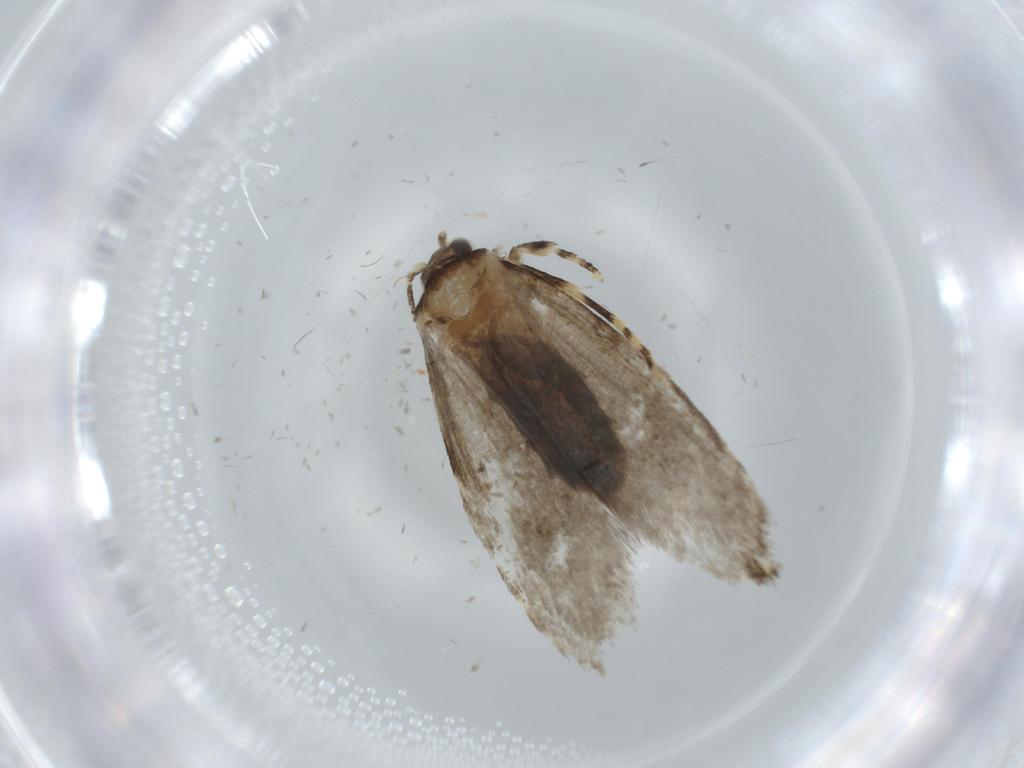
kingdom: Animalia
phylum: Arthropoda
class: Insecta
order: Lepidoptera
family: Tineidae
